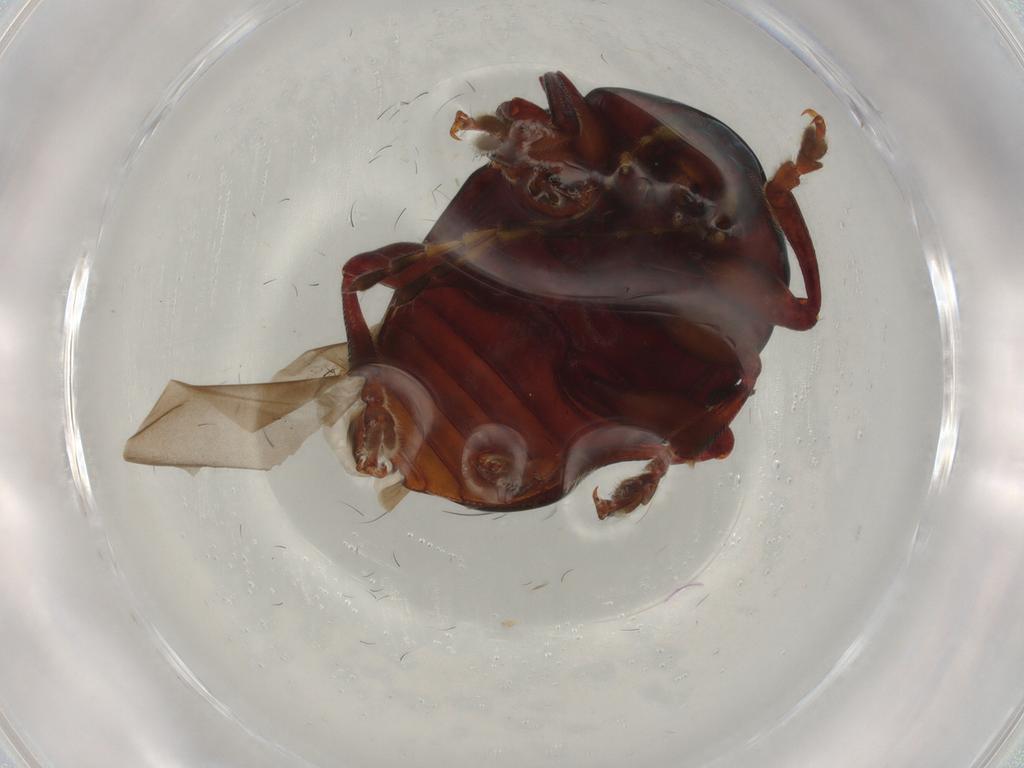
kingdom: Animalia
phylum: Arthropoda
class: Insecta
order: Coleoptera
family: Chrysomelidae
